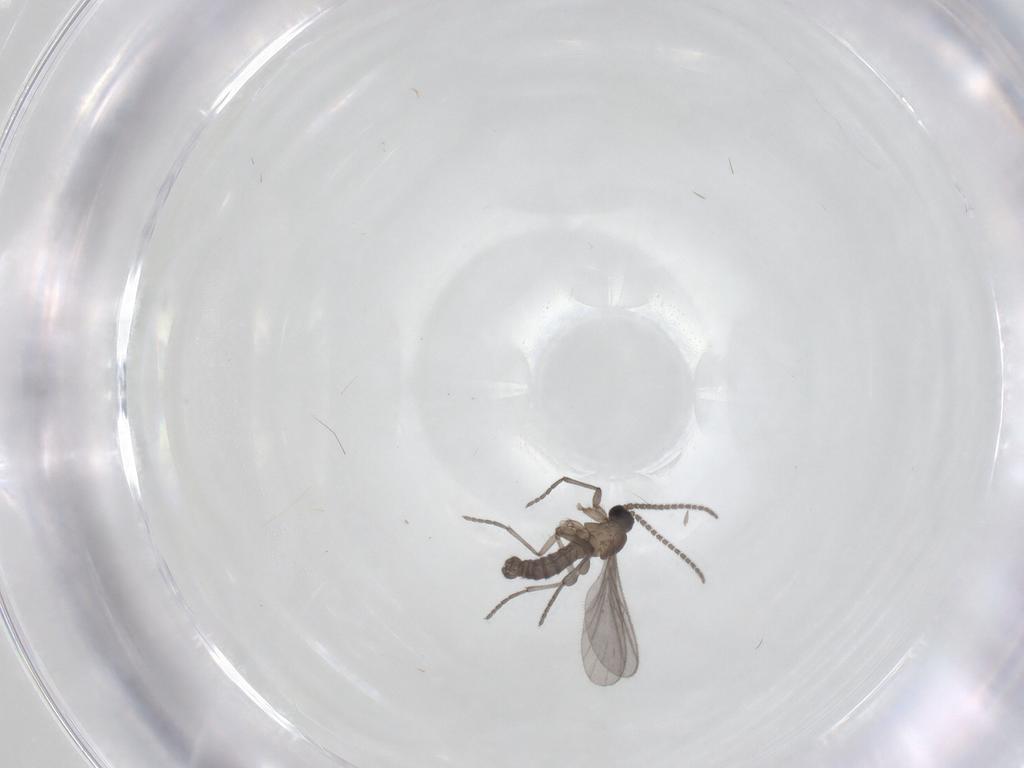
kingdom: Animalia
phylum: Arthropoda
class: Insecta
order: Diptera
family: Sciaridae
